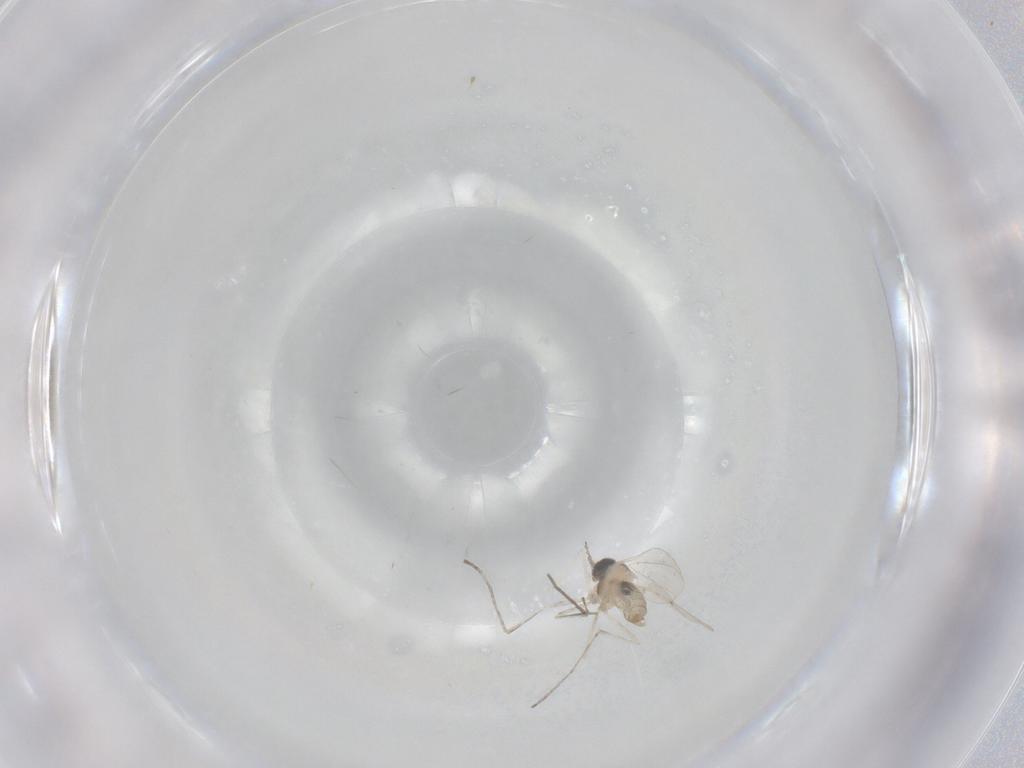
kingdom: Animalia
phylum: Arthropoda
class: Insecta
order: Diptera
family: Cecidomyiidae
